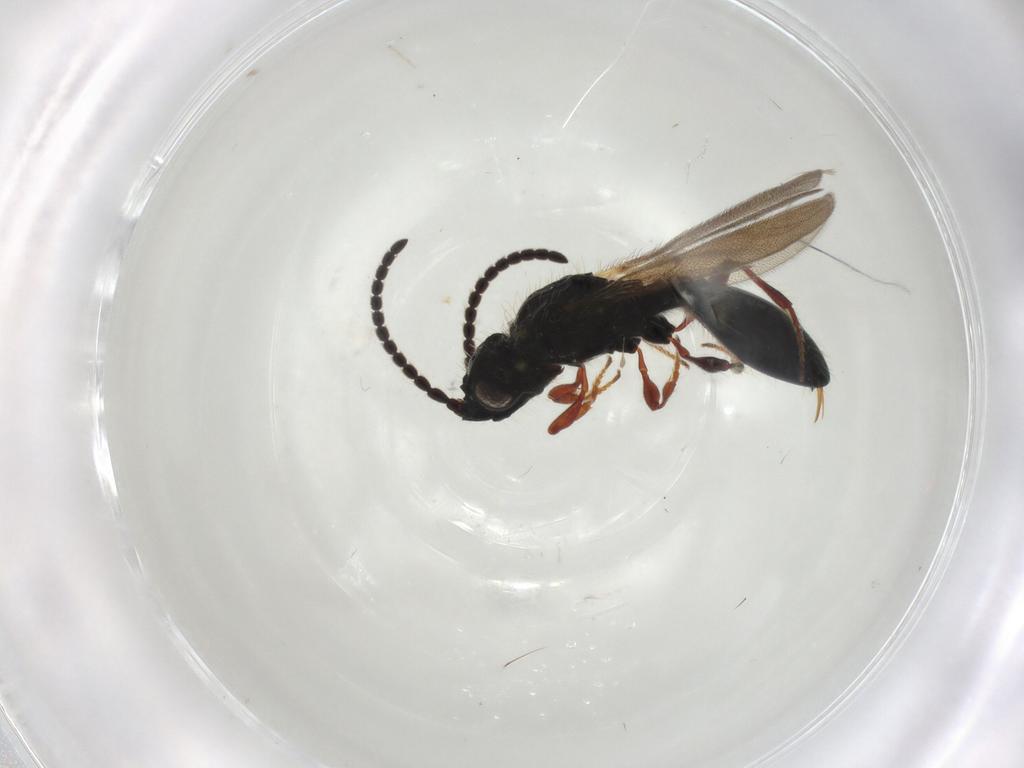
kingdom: Animalia
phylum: Arthropoda
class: Insecta
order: Hymenoptera
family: Diapriidae
